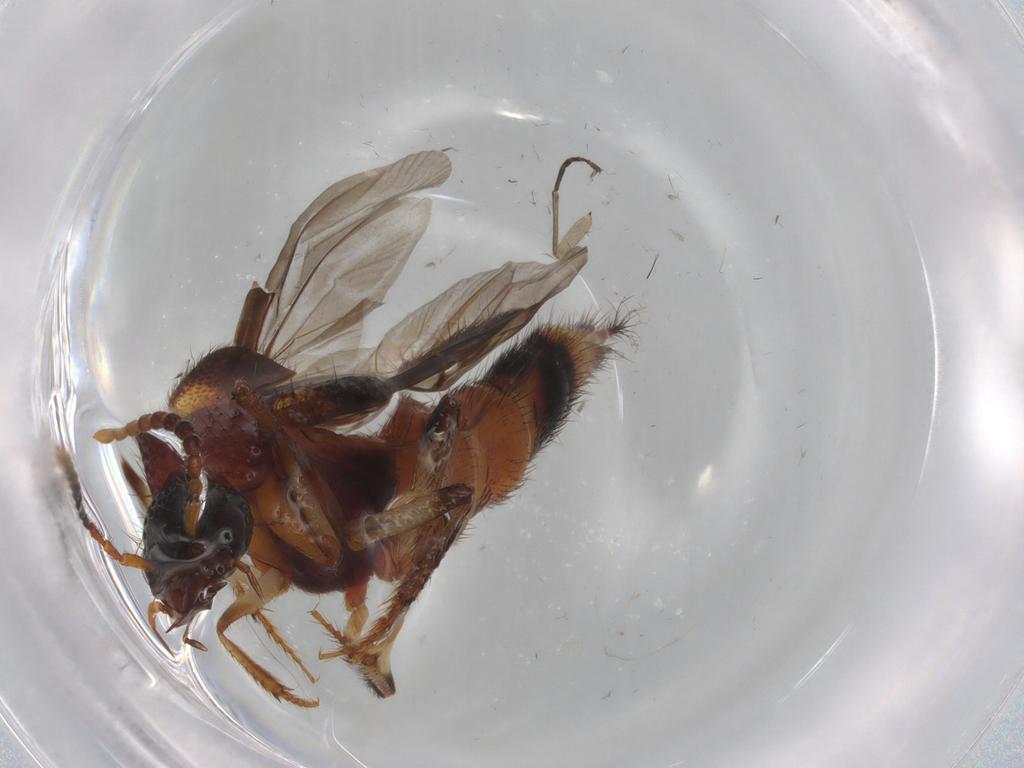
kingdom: Animalia
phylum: Arthropoda
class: Insecta
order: Coleoptera
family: Staphylinidae
